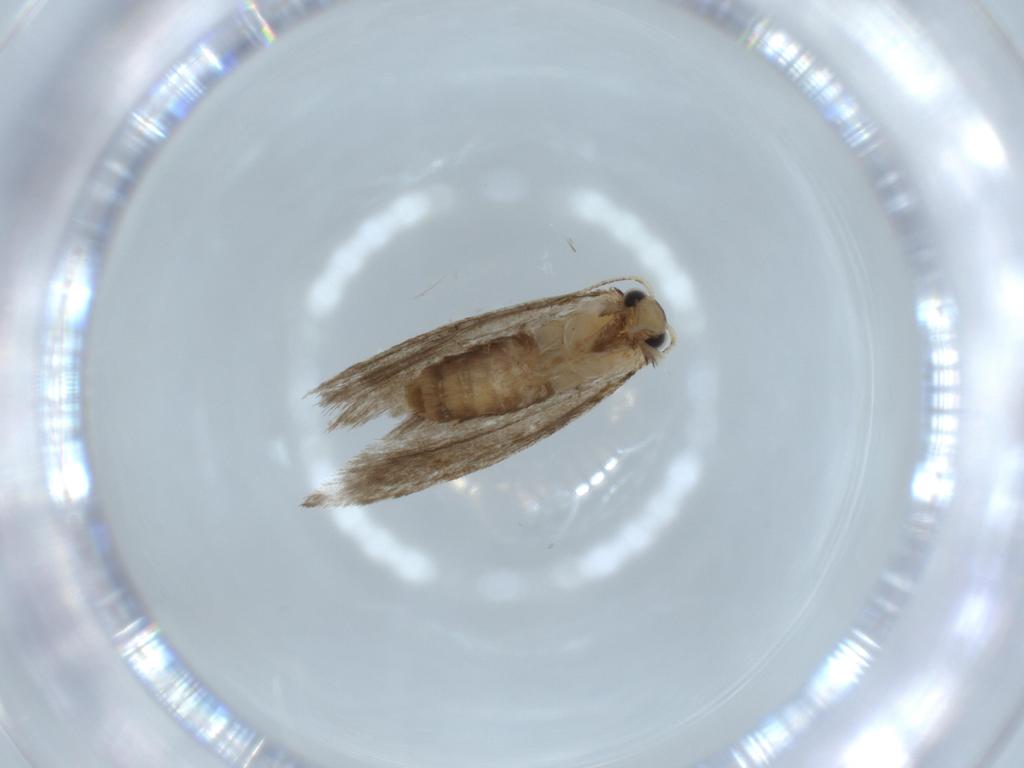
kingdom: Animalia
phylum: Arthropoda
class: Insecta
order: Lepidoptera
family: Tineidae
